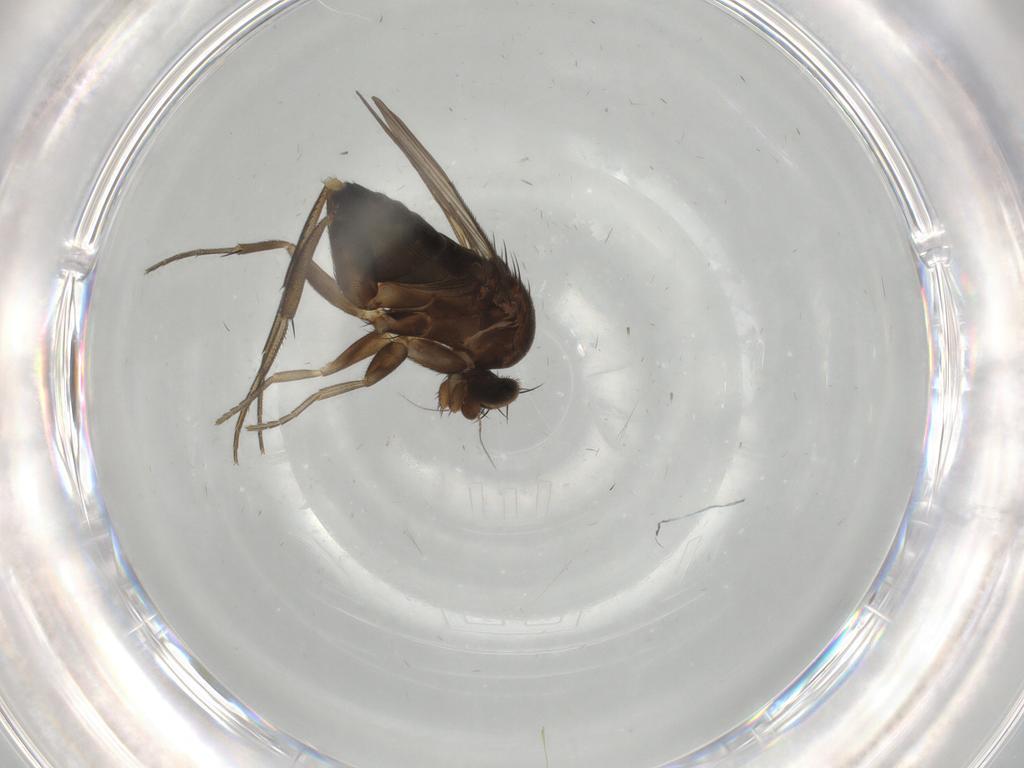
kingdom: Animalia
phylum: Arthropoda
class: Insecta
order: Diptera
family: Phoridae
